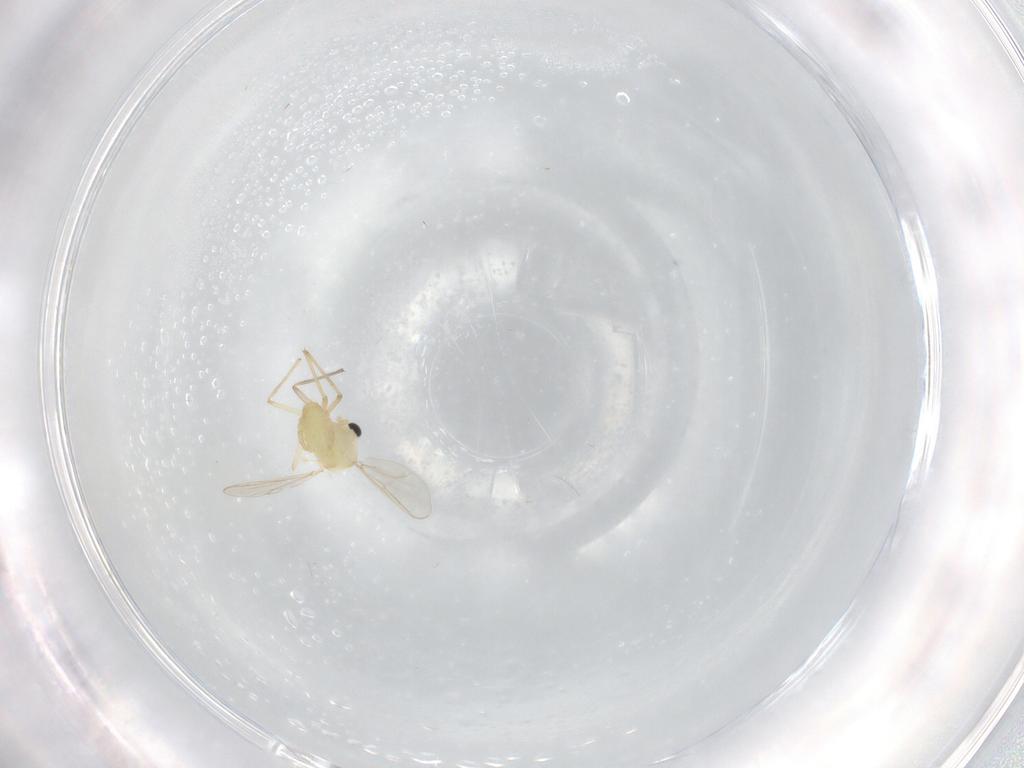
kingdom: Animalia
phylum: Arthropoda
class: Insecta
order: Diptera
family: Phoridae
